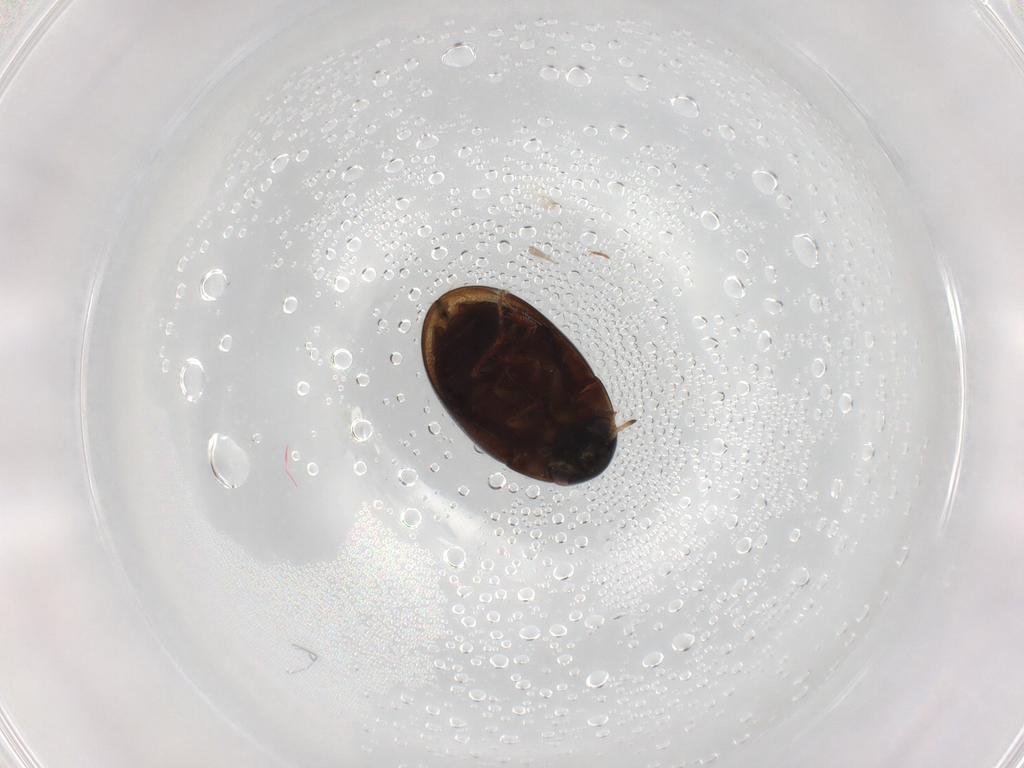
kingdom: Animalia
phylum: Arthropoda
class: Insecta
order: Coleoptera
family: Hydrophilidae
